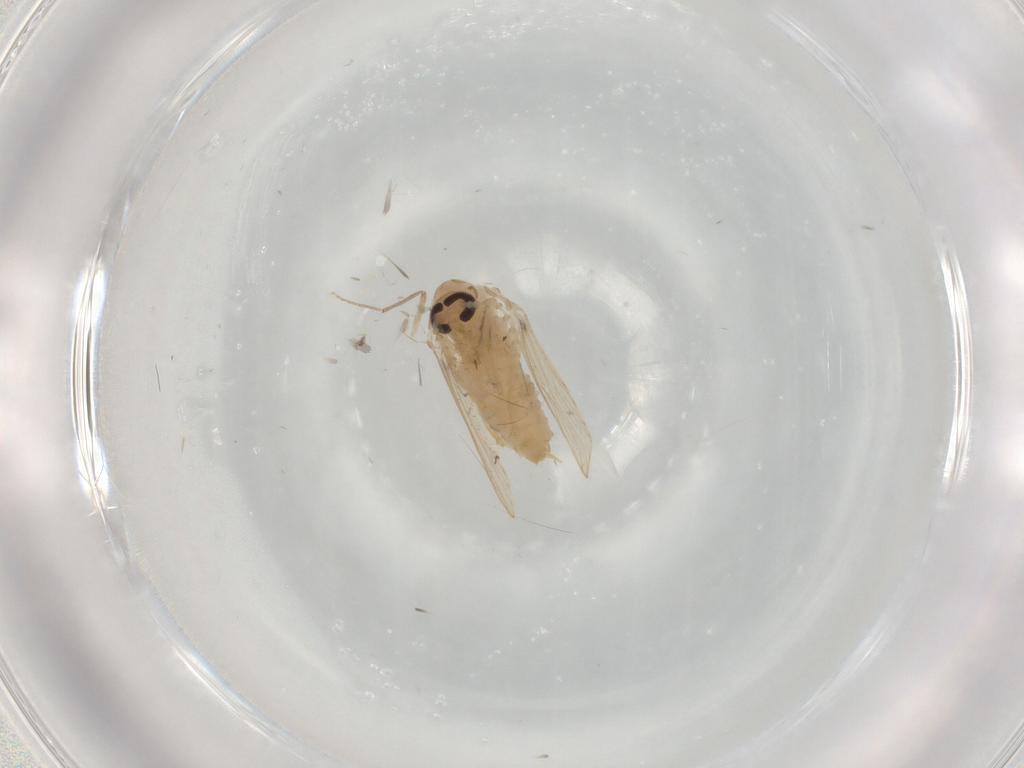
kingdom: Animalia
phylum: Arthropoda
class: Insecta
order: Diptera
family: Psychodidae
